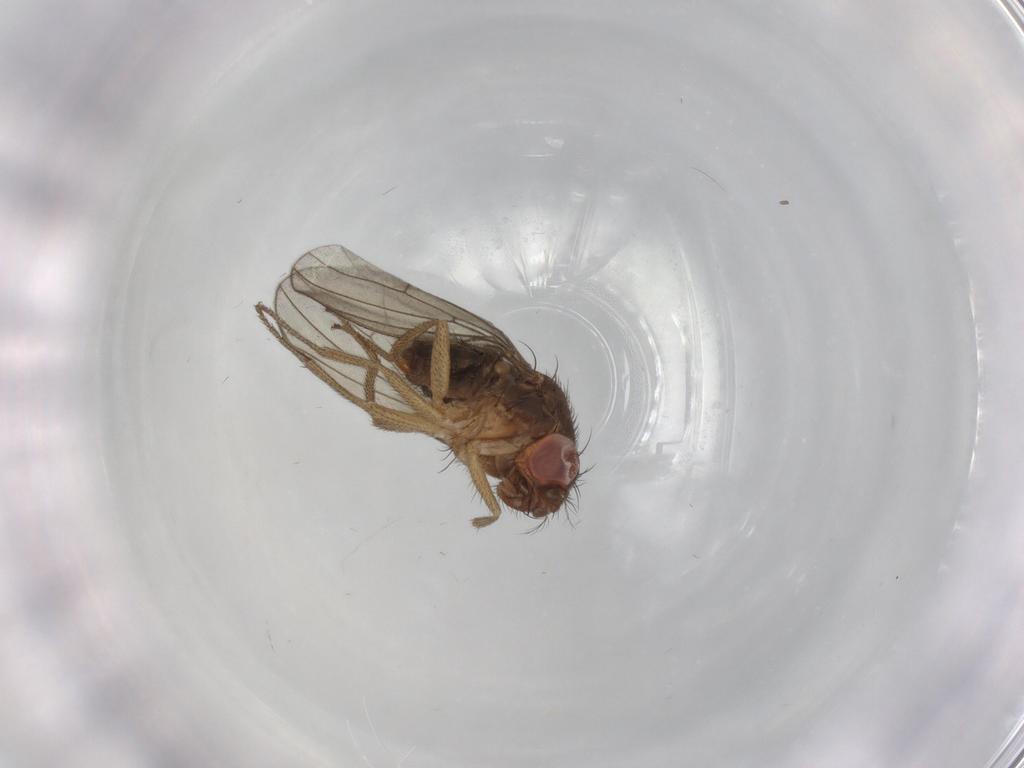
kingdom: Animalia
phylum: Arthropoda
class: Insecta
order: Diptera
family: Drosophilidae
